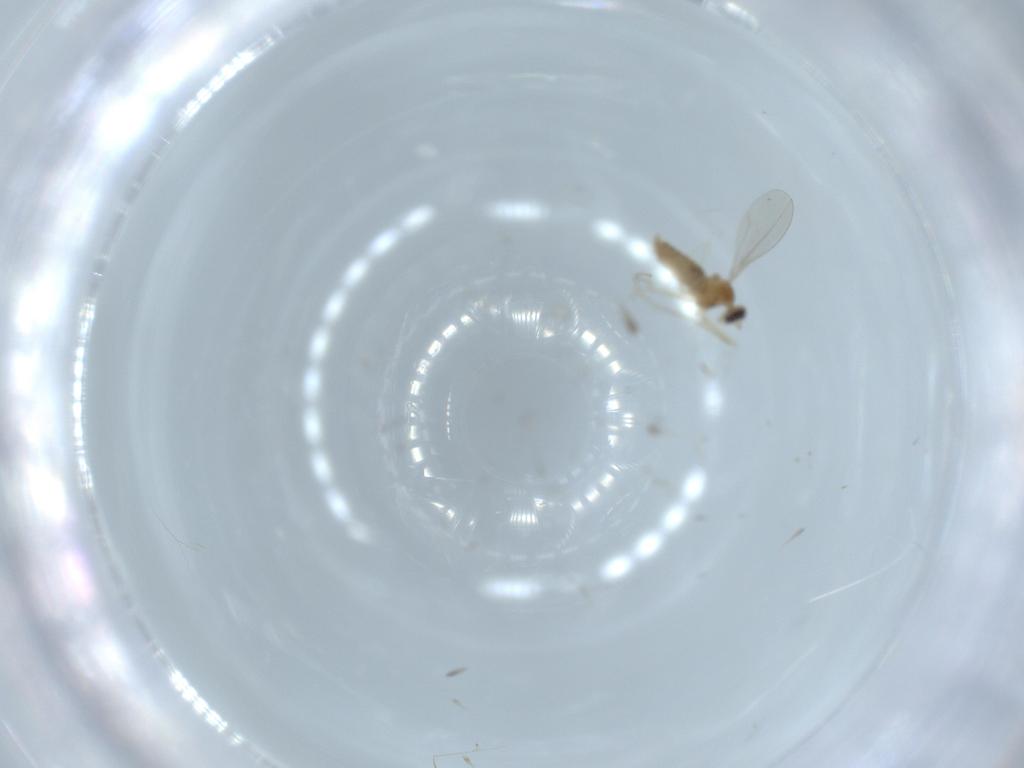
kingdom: Animalia
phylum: Arthropoda
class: Insecta
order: Diptera
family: Cecidomyiidae
